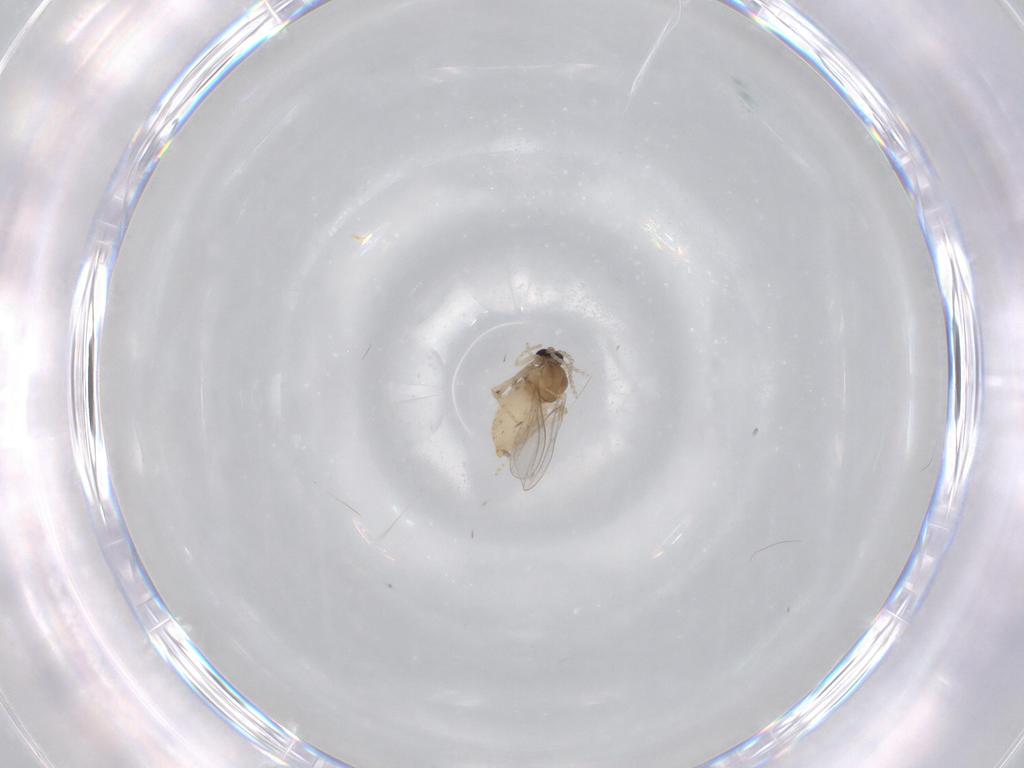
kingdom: Animalia
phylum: Arthropoda
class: Insecta
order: Diptera
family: Cecidomyiidae
